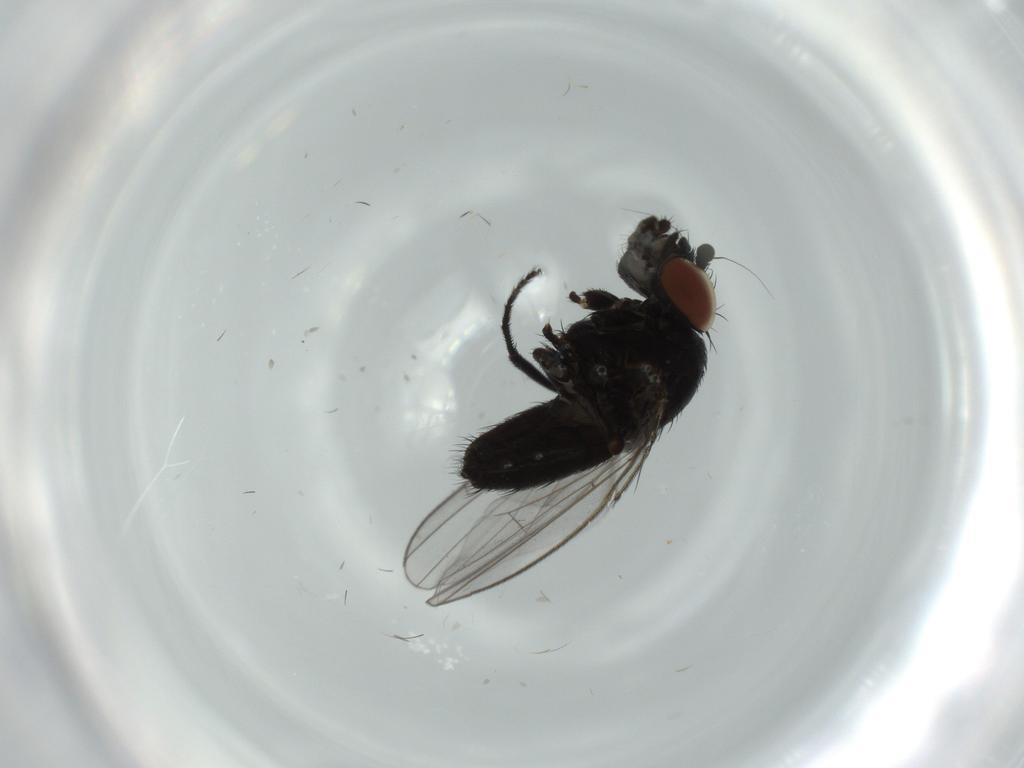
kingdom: Animalia
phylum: Arthropoda
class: Insecta
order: Diptera
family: Milichiidae
